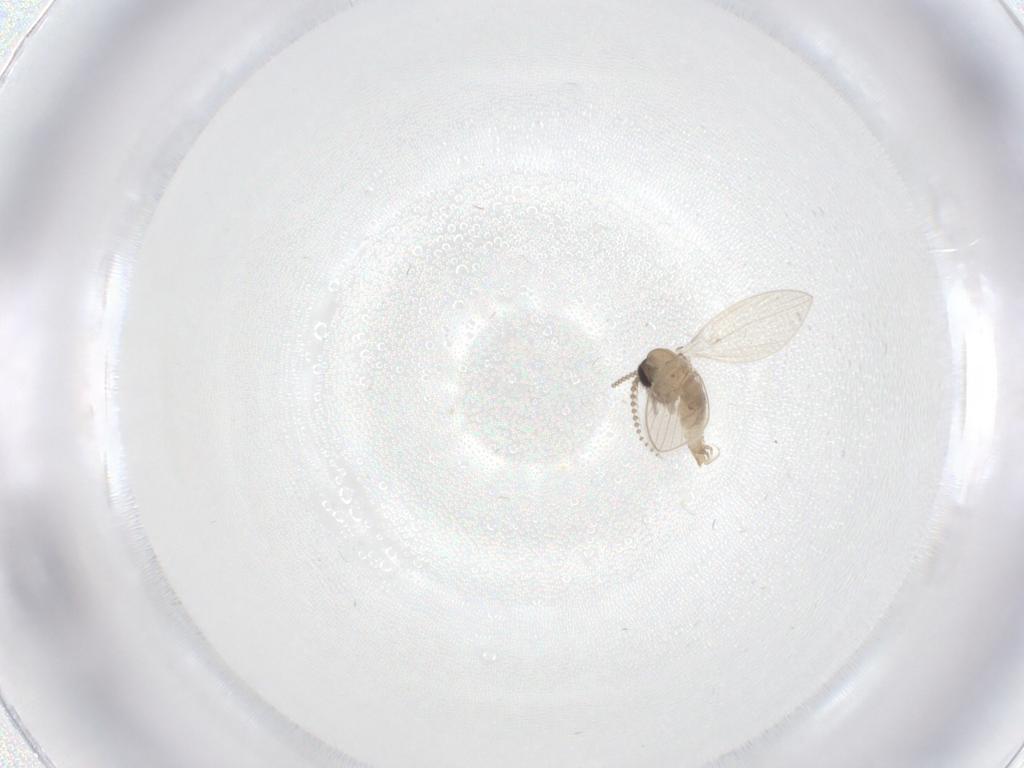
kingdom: Animalia
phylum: Arthropoda
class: Insecta
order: Diptera
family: Psychodidae
